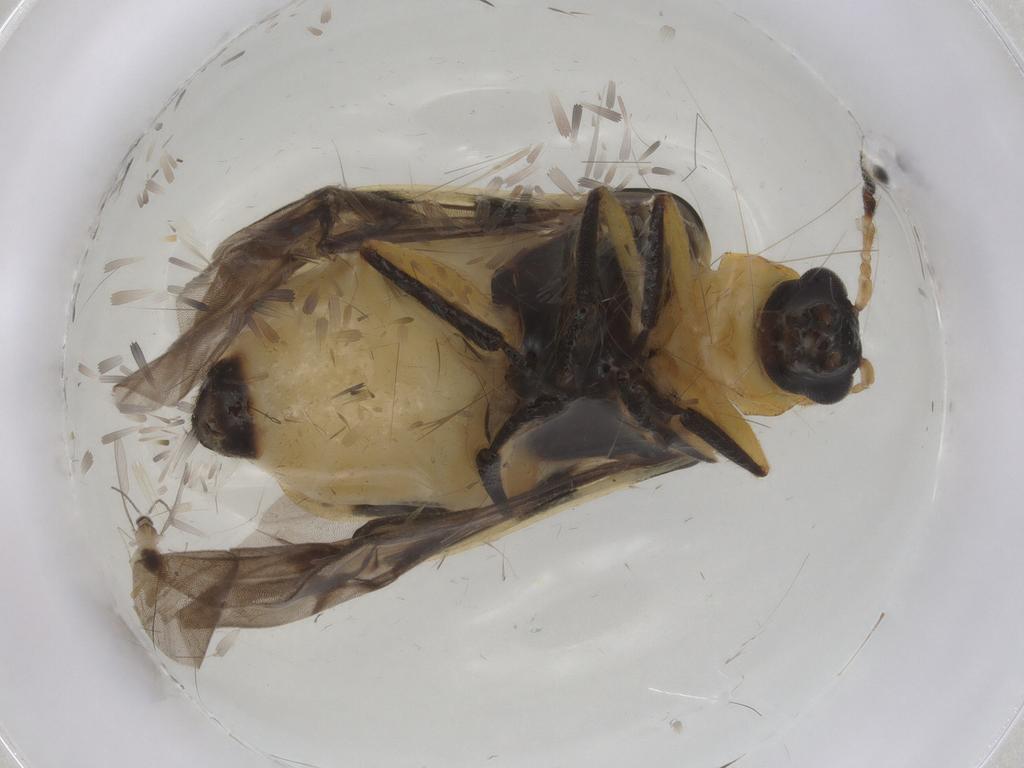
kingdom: Animalia
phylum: Arthropoda
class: Insecta
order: Coleoptera
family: Chrysomelidae
